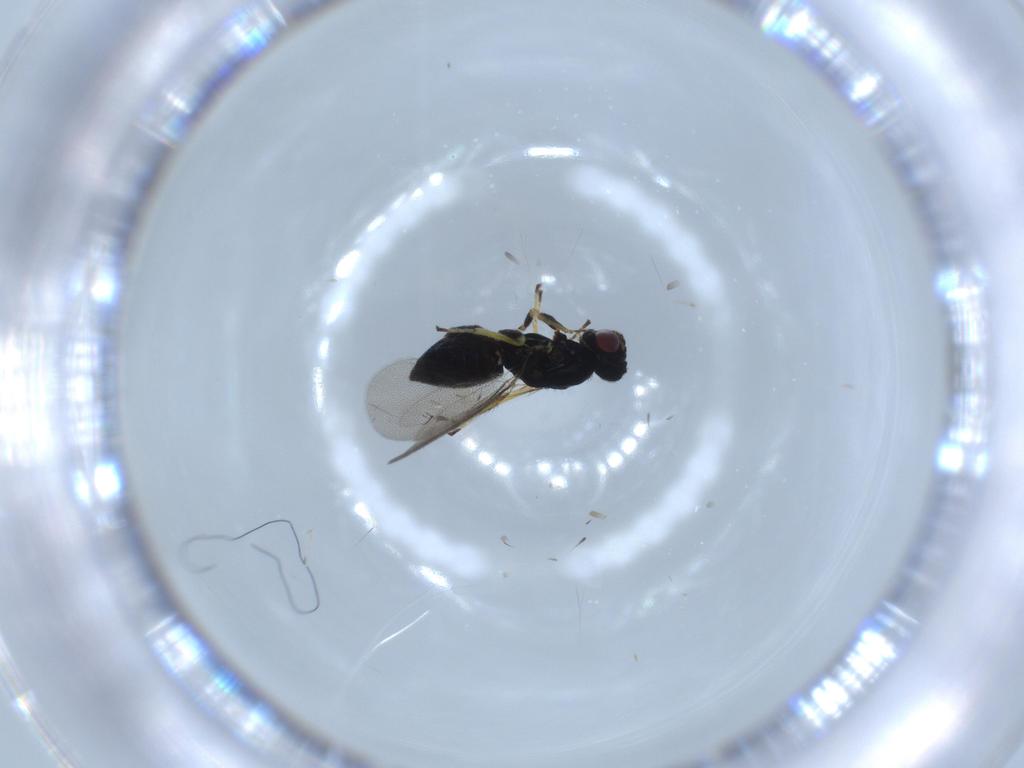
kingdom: Animalia
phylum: Arthropoda
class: Insecta
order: Hymenoptera
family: Eulophidae
